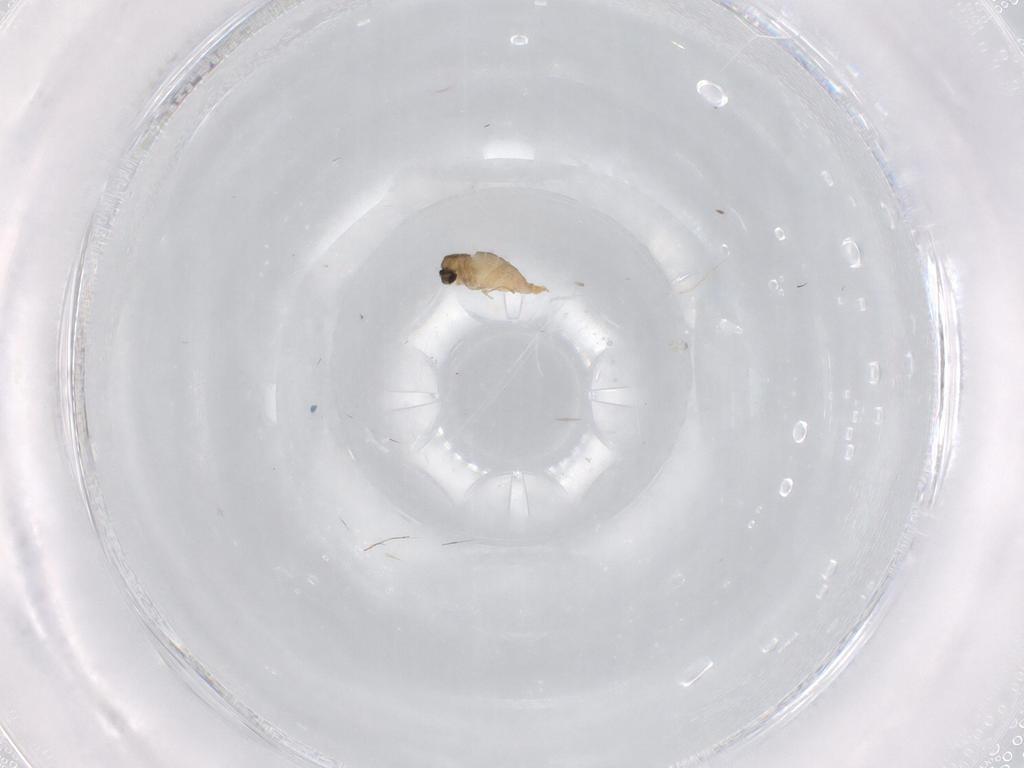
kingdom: Animalia
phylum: Arthropoda
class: Insecta
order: Diptera
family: Cecidomyiidae
